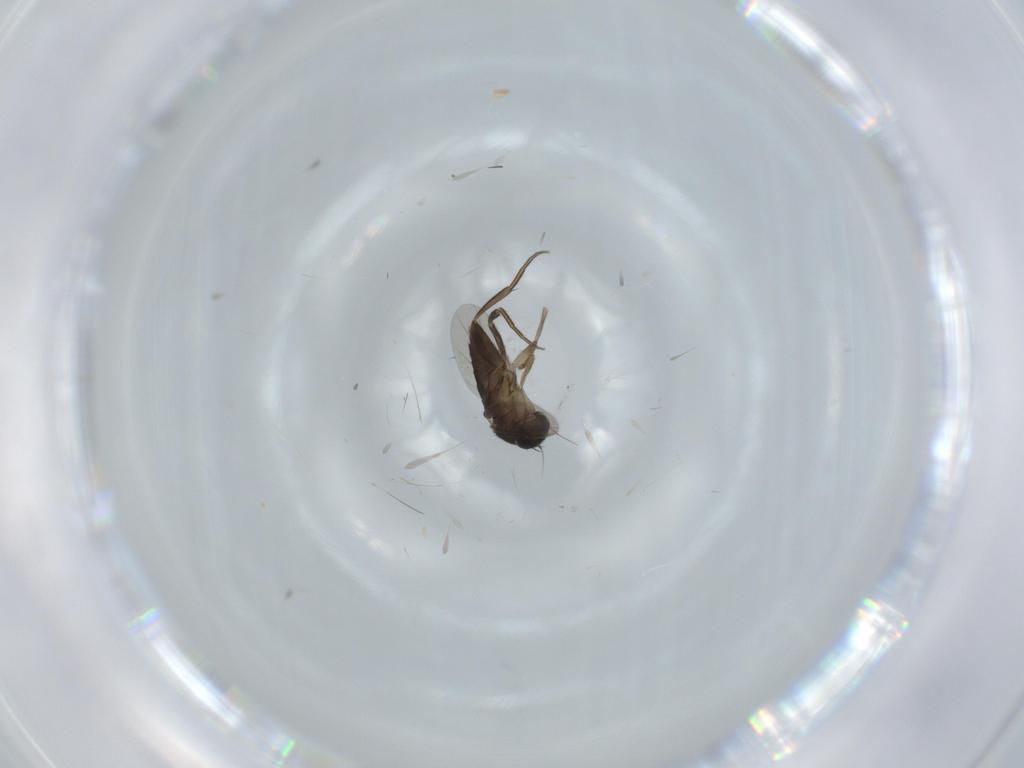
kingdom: Animalia
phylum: Arthropoda
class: Insecta
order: Diptera
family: Phoridae
